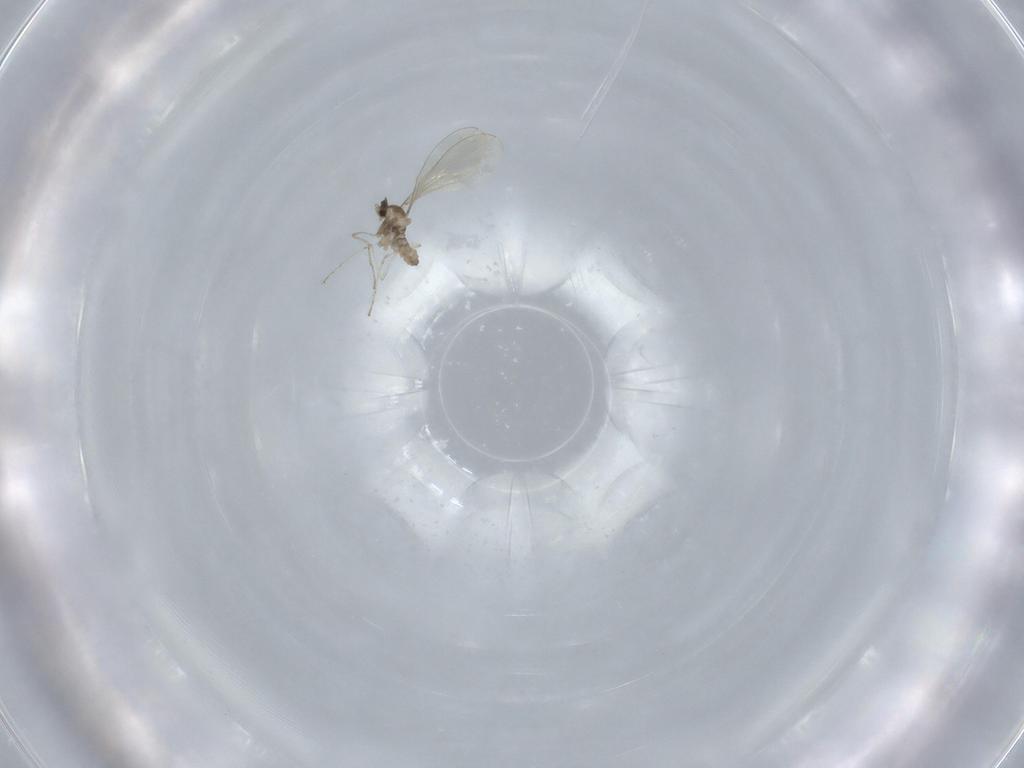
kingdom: Animalia
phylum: Arthropoda
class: Insecta
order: Diptera
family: Cecidomyiidae
